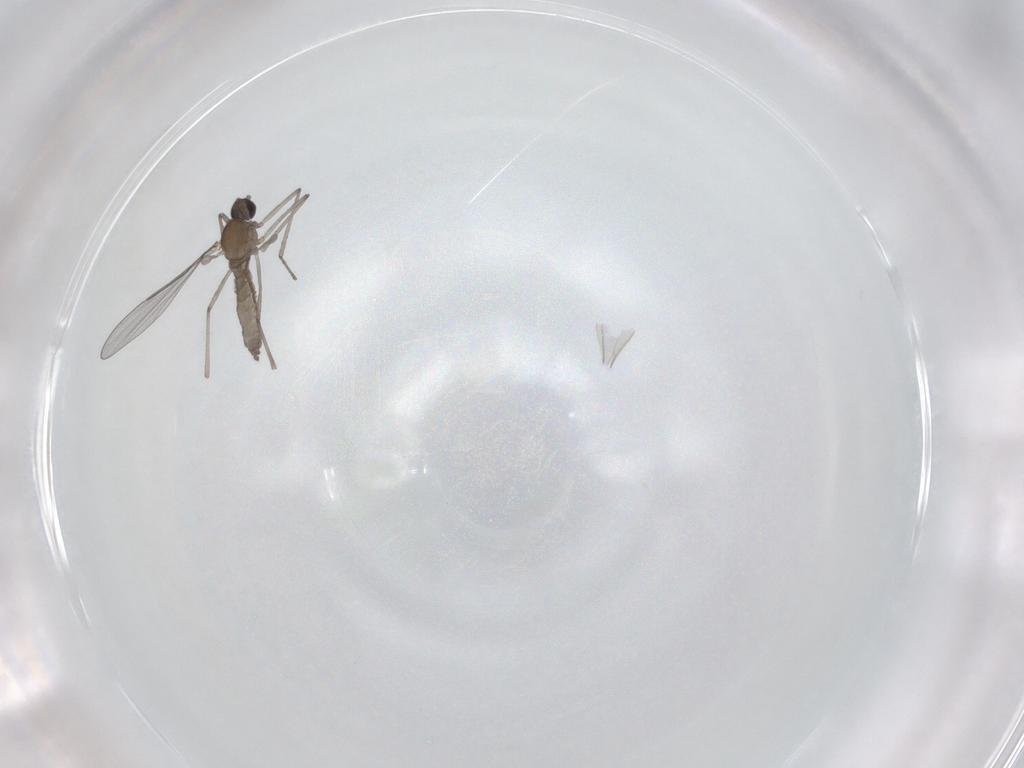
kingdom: Animalia
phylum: Arthropoda
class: Insecta
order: Diptera
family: Cecidomyiidae
